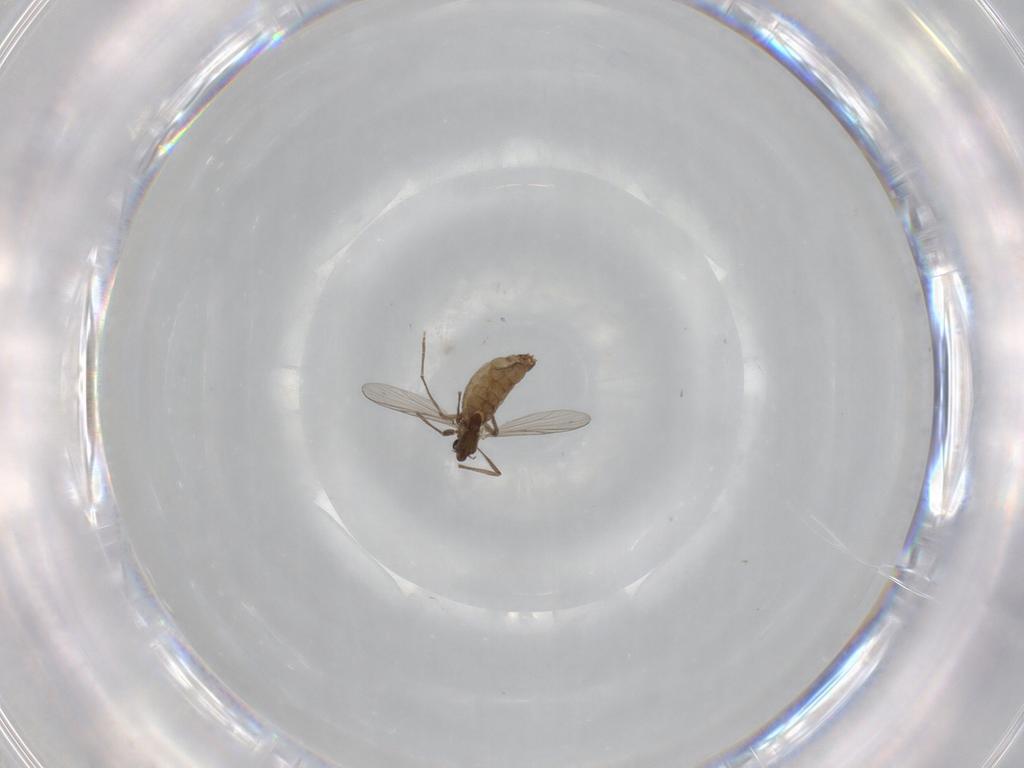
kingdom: Animalia
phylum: Arthropoda
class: Insecta
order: Diptera
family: Chironomidae
